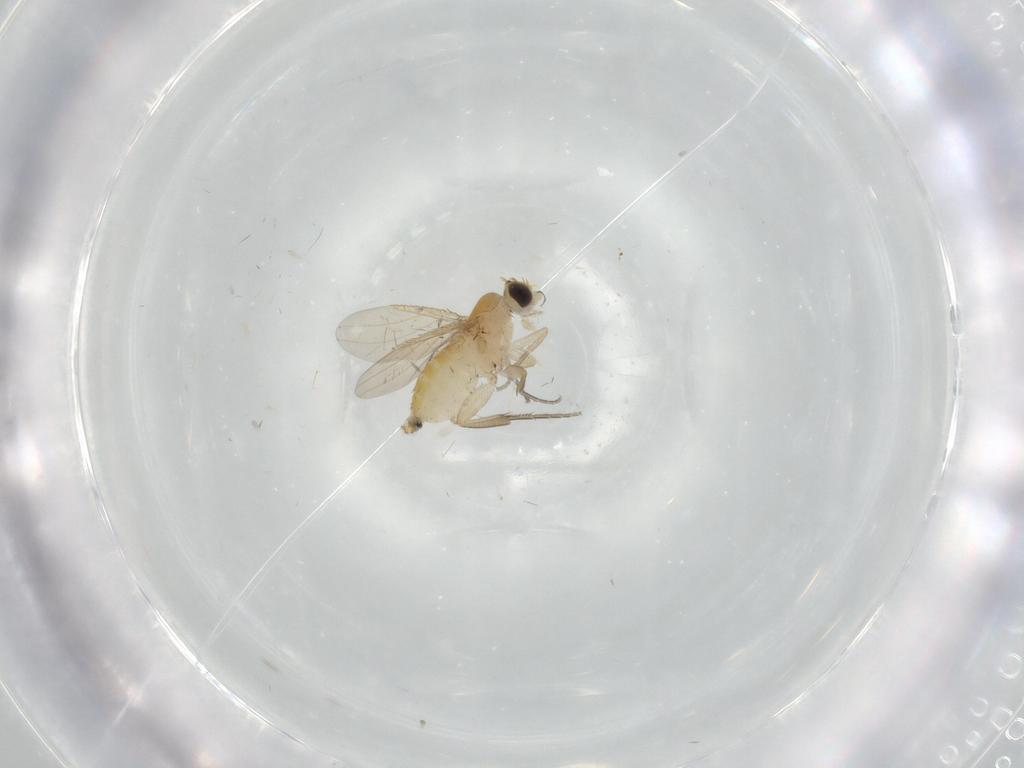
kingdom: Animalia
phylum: Arthropoda
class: Insecta
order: Diptera
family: Cecidomyiidae
